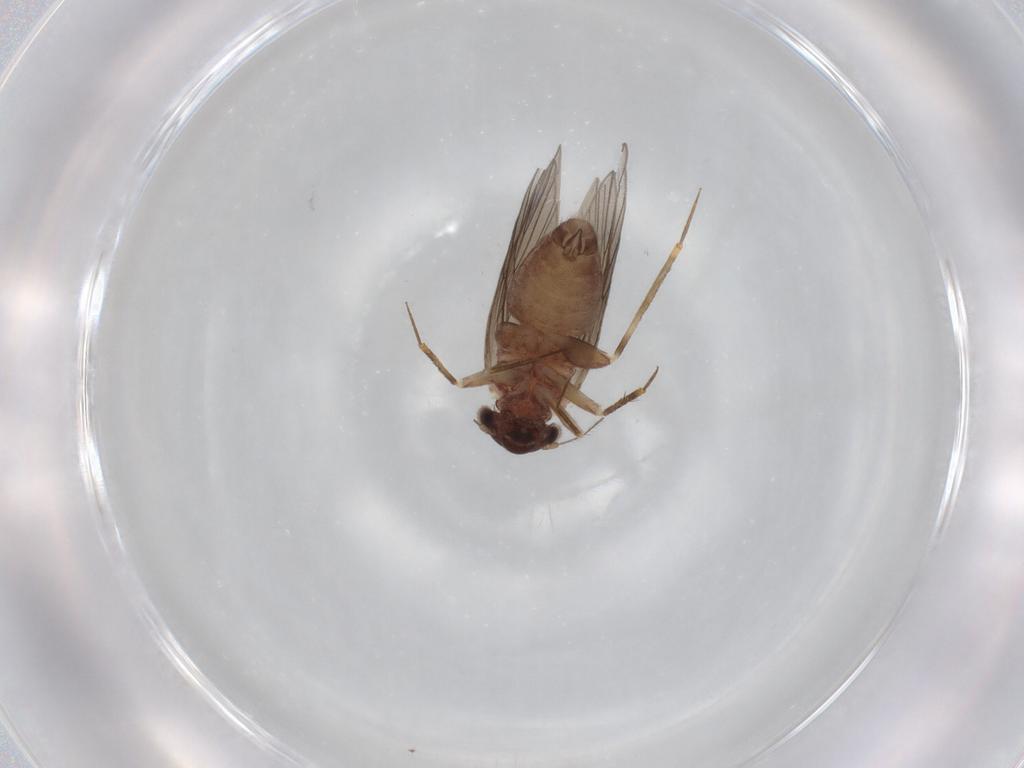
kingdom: Animalia
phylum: Arthropoda
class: Insecta
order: Psocodea
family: Lepidopsocidae
